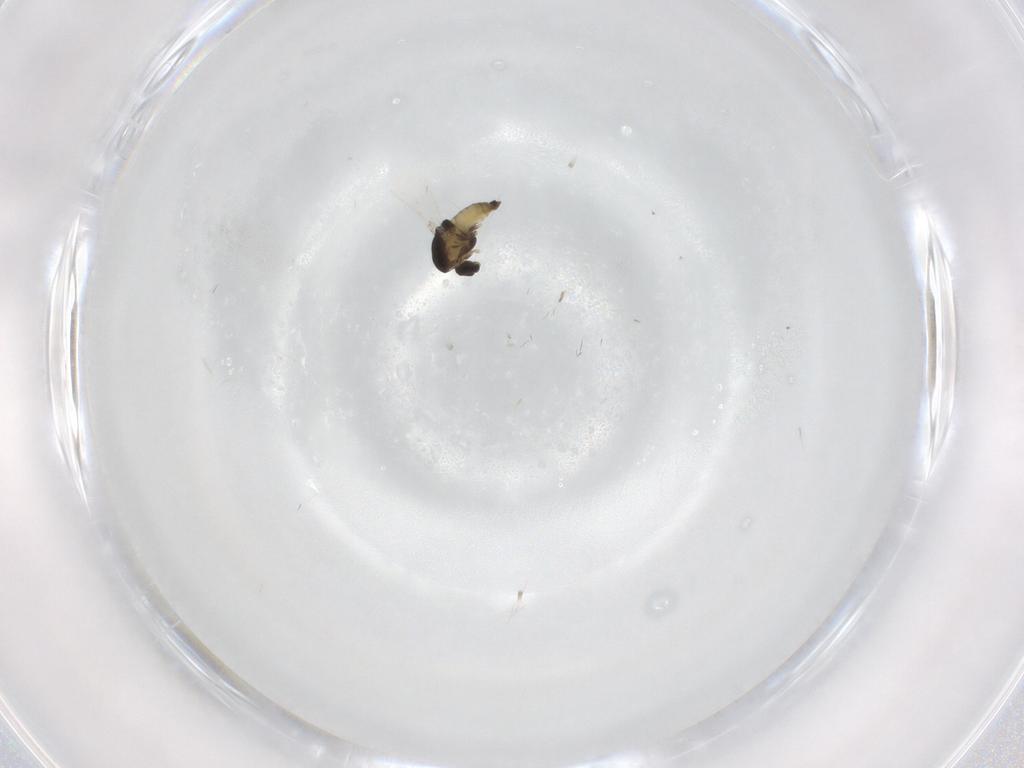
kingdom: Animalia
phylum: Arthropoda
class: Insecta
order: Diptera
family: Chironomidae
